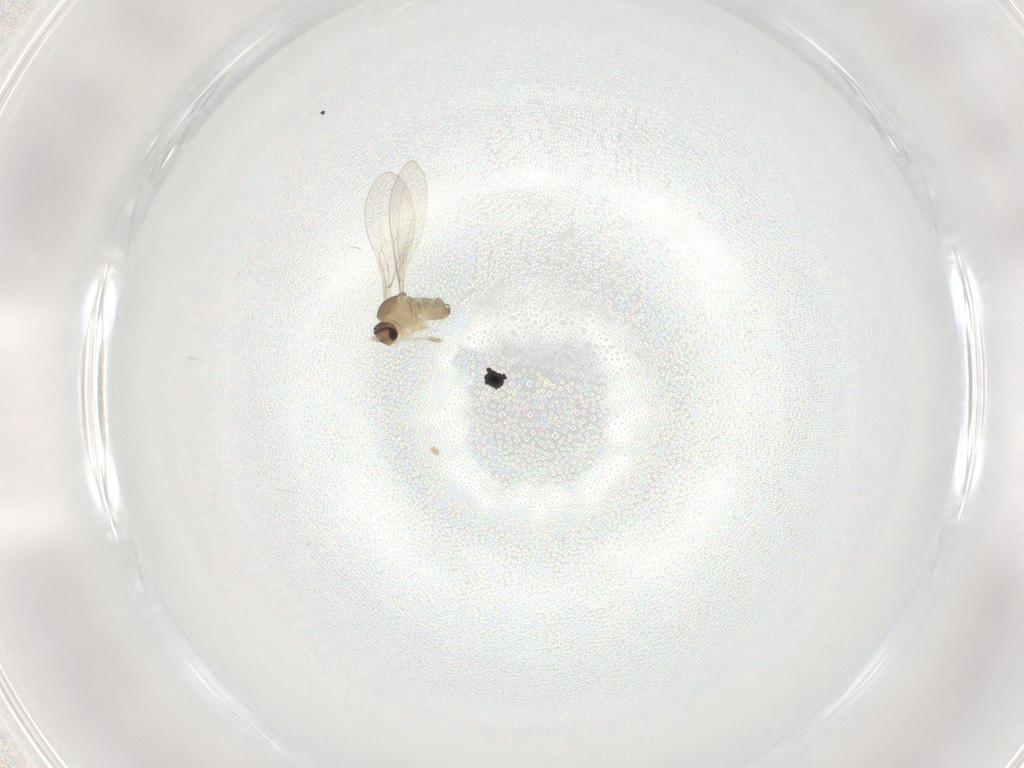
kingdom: Animalia
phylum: Arthropoda
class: Insecta
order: Diptera
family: Cecidomyiidae
